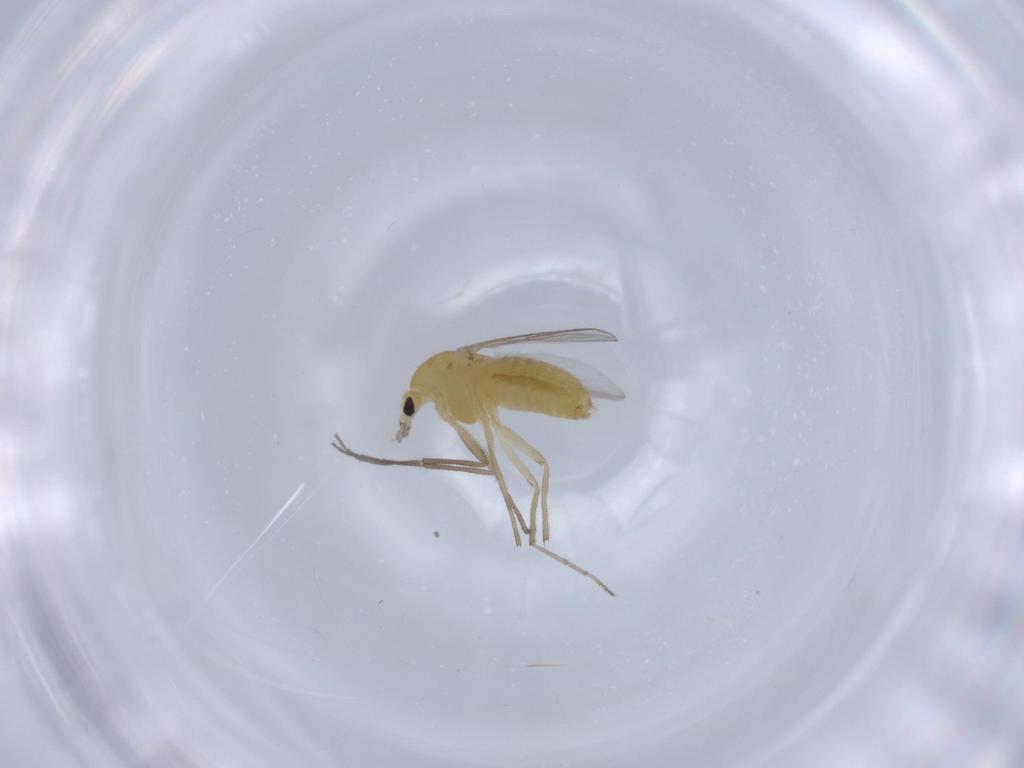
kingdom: Animalia
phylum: Arthropoda
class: Insecta
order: Diptera
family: Chironomidae
